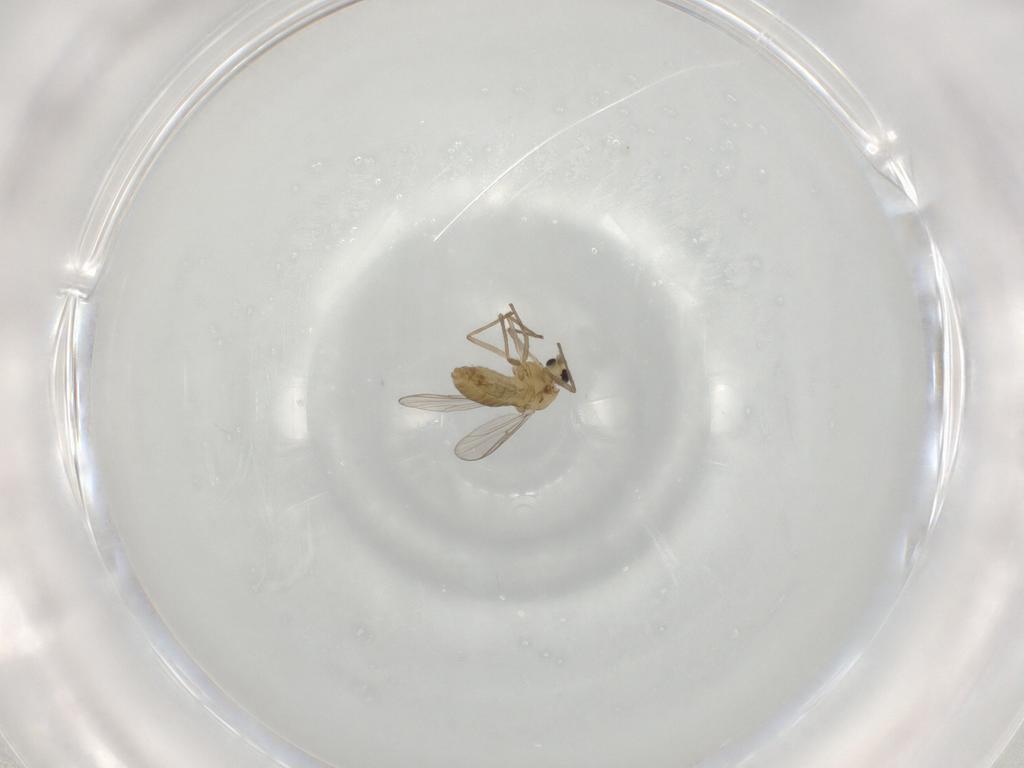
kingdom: Animalia
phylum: Arthropoda
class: Insecta
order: Diptera
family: Chironomidae
